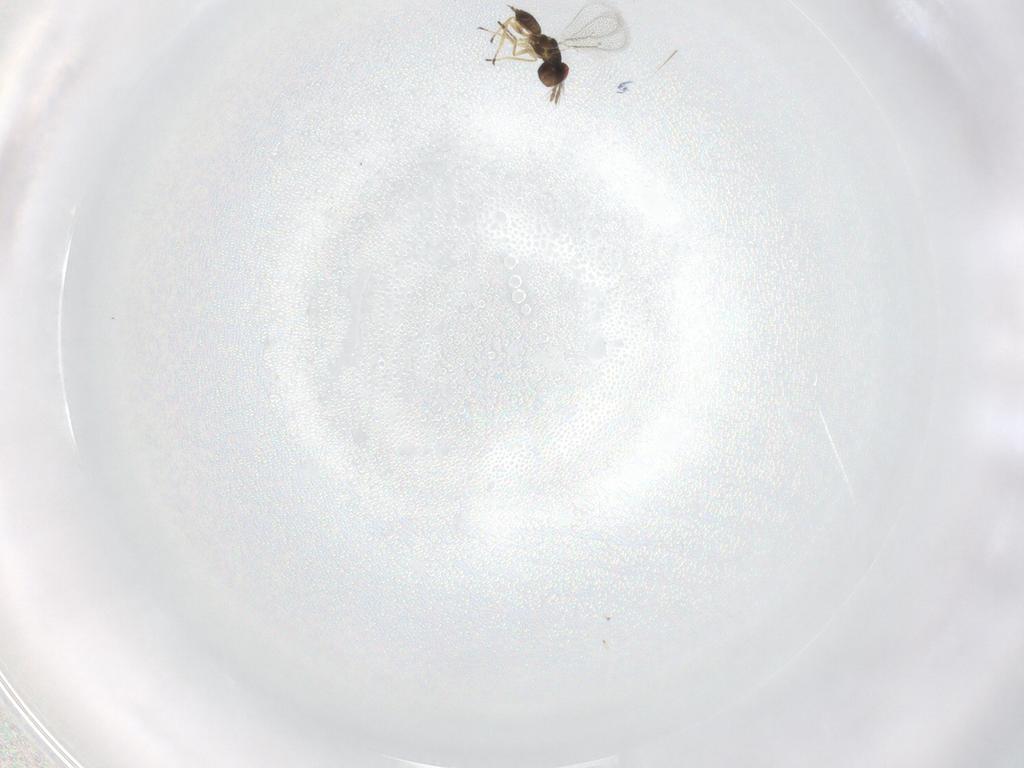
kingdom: Animalia
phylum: Arthropoda
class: Insecta
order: Hymenoptera
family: Eulophidae
